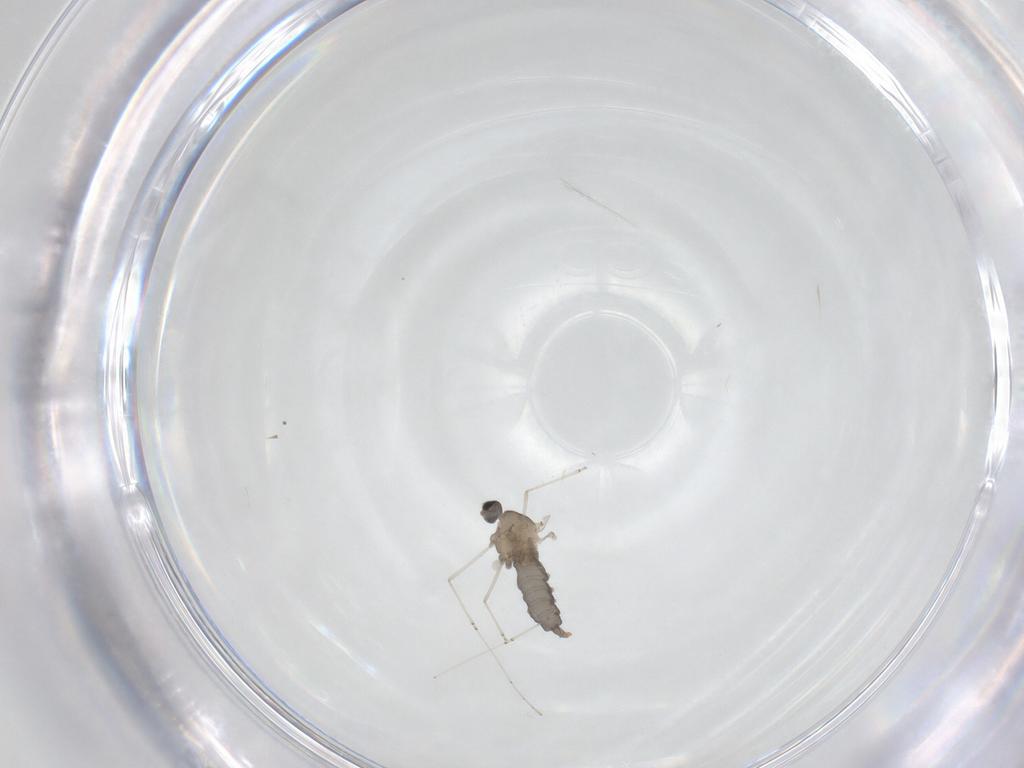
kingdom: Animalia
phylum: Arthropoda
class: Insecta
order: Diptera
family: Cecidomyiidae
